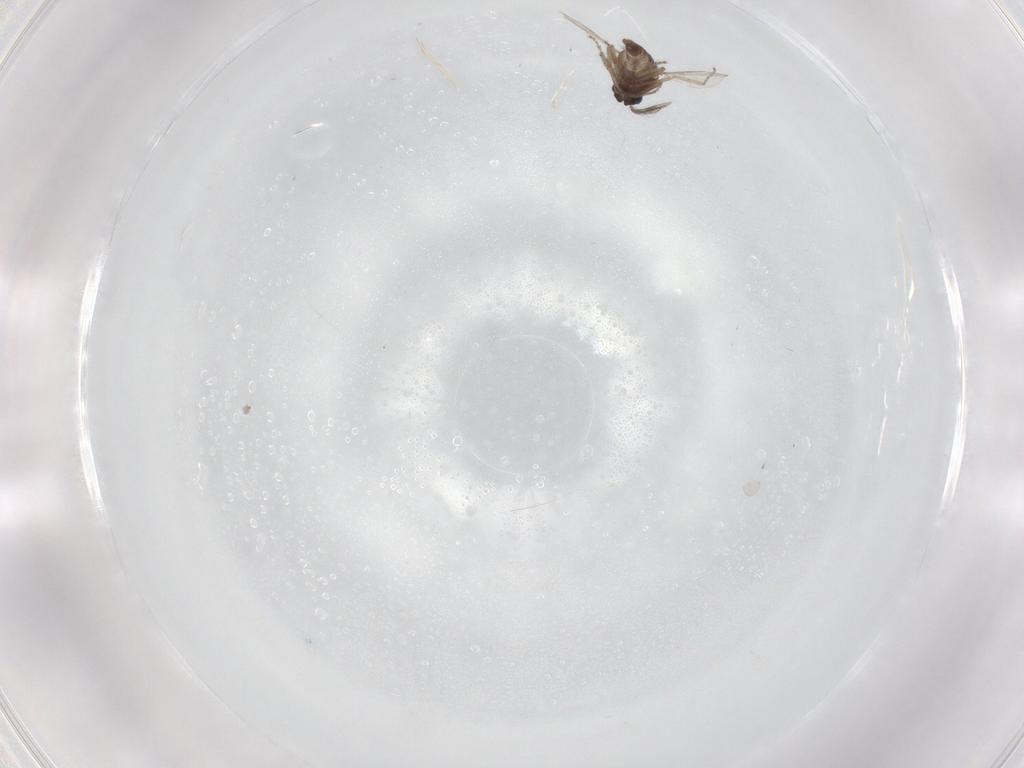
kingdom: Animalia
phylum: Arthropoda
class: Insecta
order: Diptera
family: Ceratopogonidae
